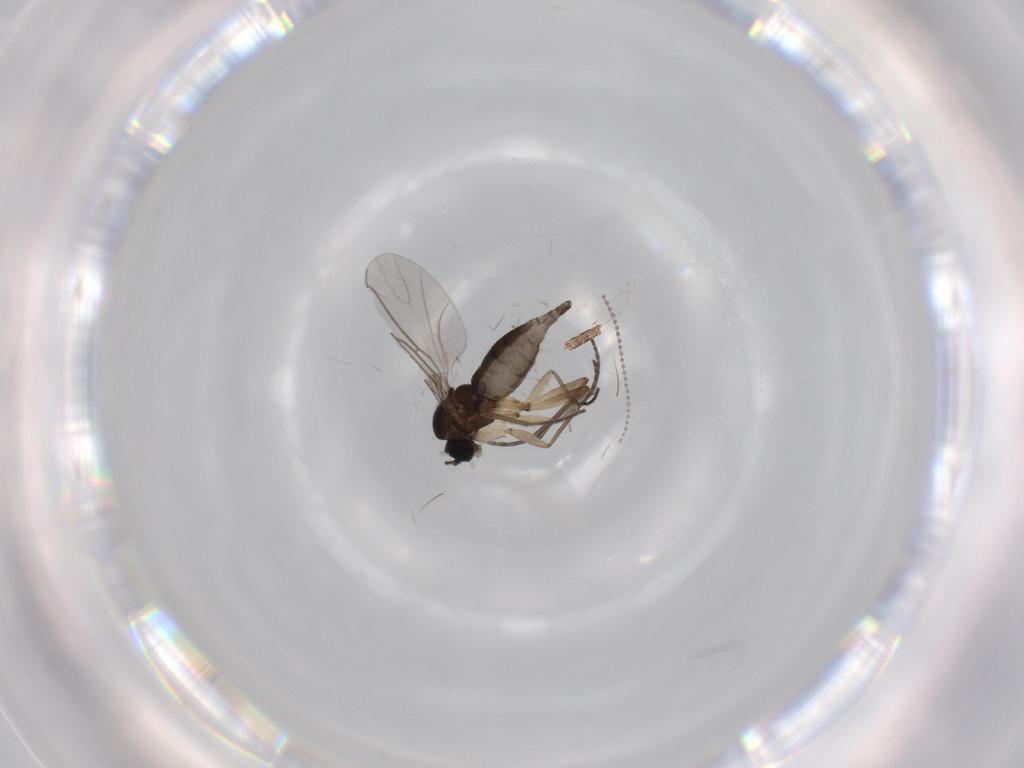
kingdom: Animalia
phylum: Arthropoda
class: Insecta
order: Diptera
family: Sciaridae
